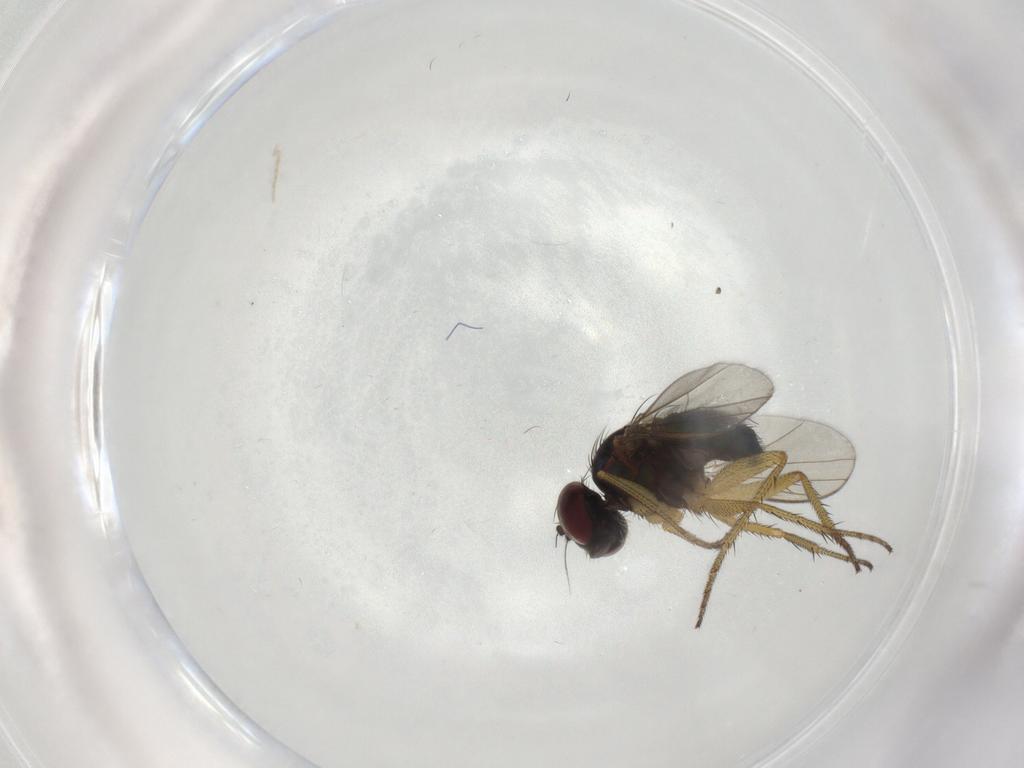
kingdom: Animalia
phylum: Arthropoda
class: Insecta
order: Diptera
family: Dolichopodidae
